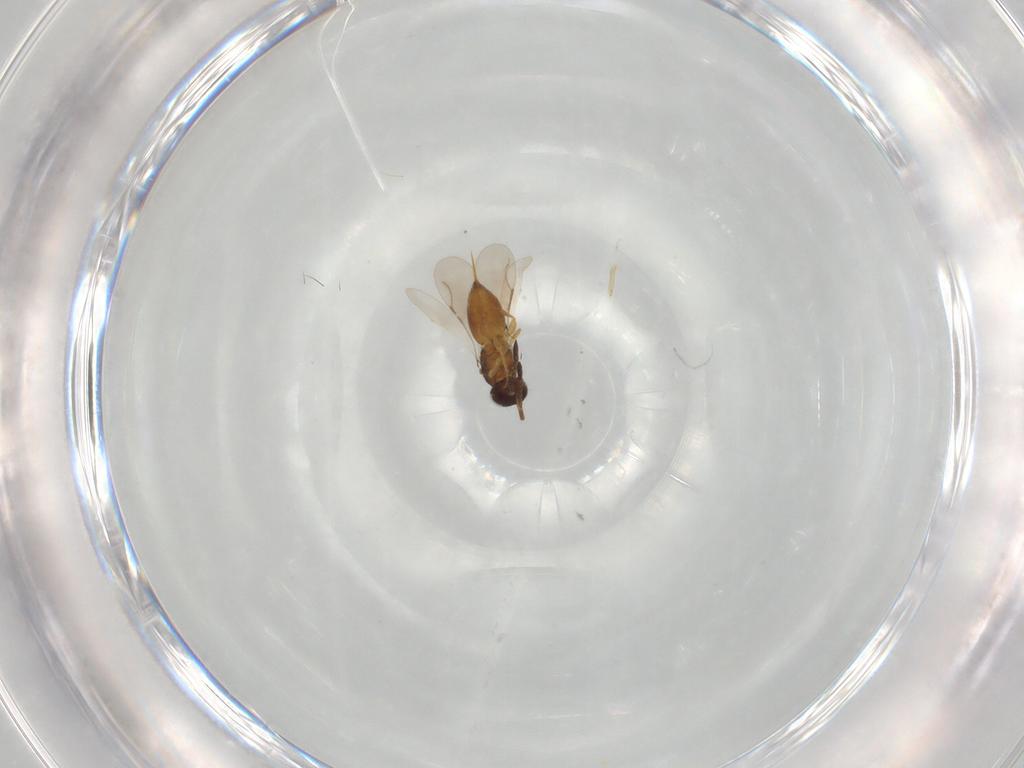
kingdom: Animalia
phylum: Arthropoda
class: Insecta
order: Hymenoptera
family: Ceraphronidae
